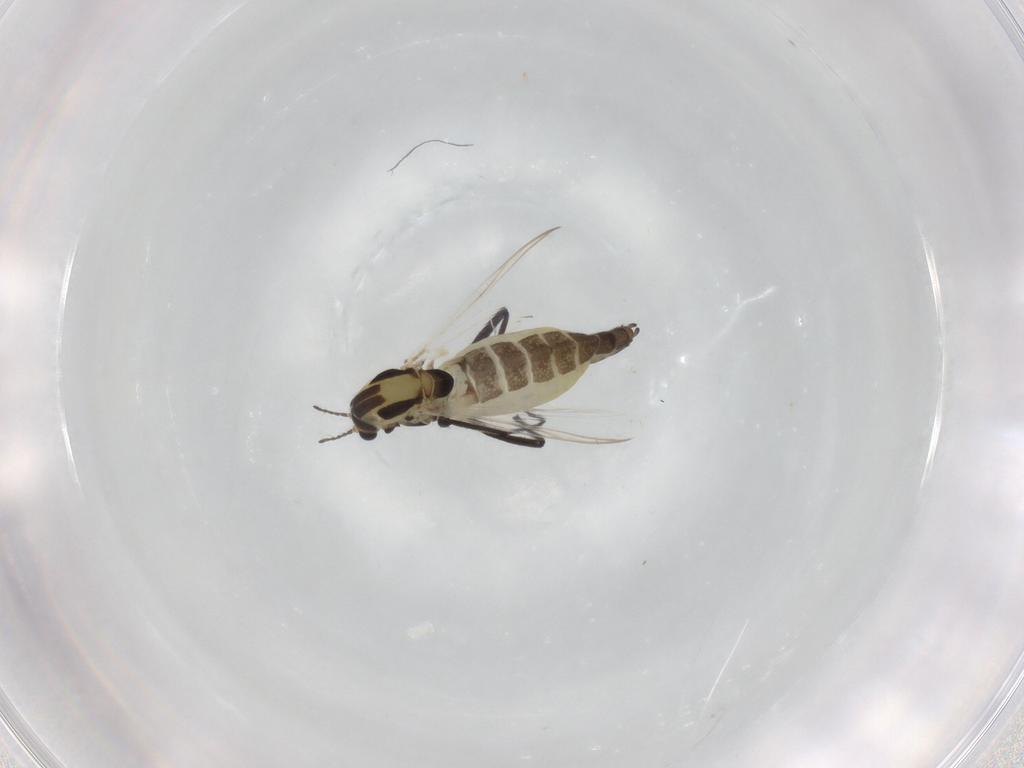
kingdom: Animalia
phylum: Arthropoda
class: Insecta
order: Diptera
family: Chironomidae
